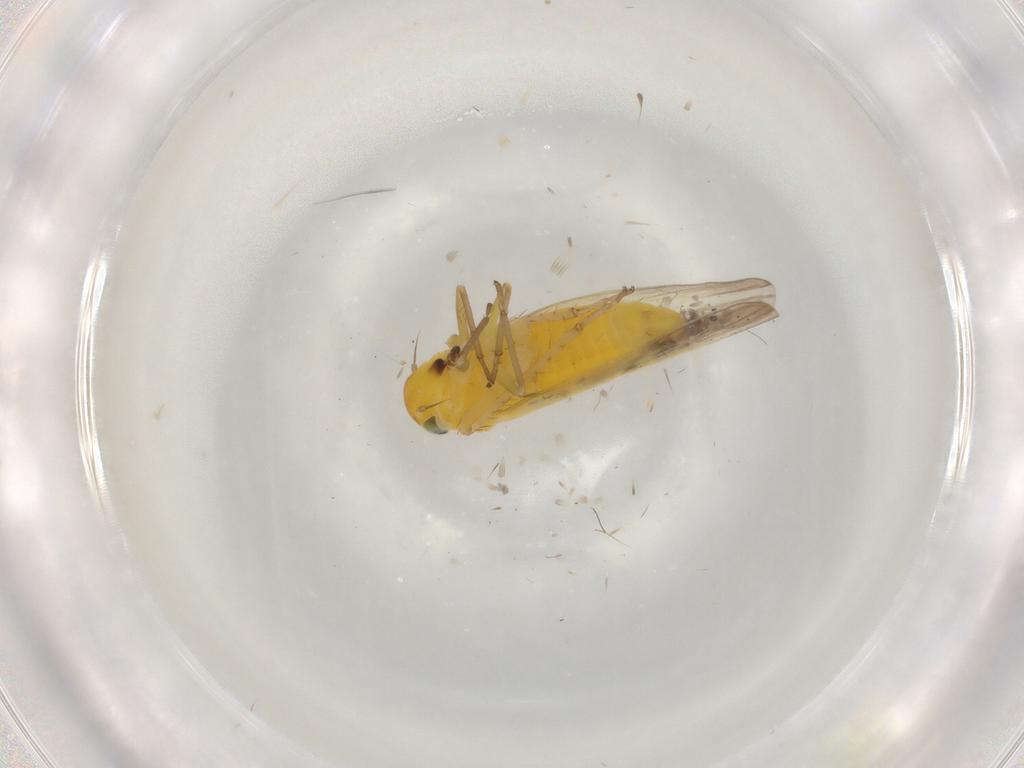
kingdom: Animalia
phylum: Arthropoda
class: Insecta
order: Hemiptera
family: Cicadellidae
